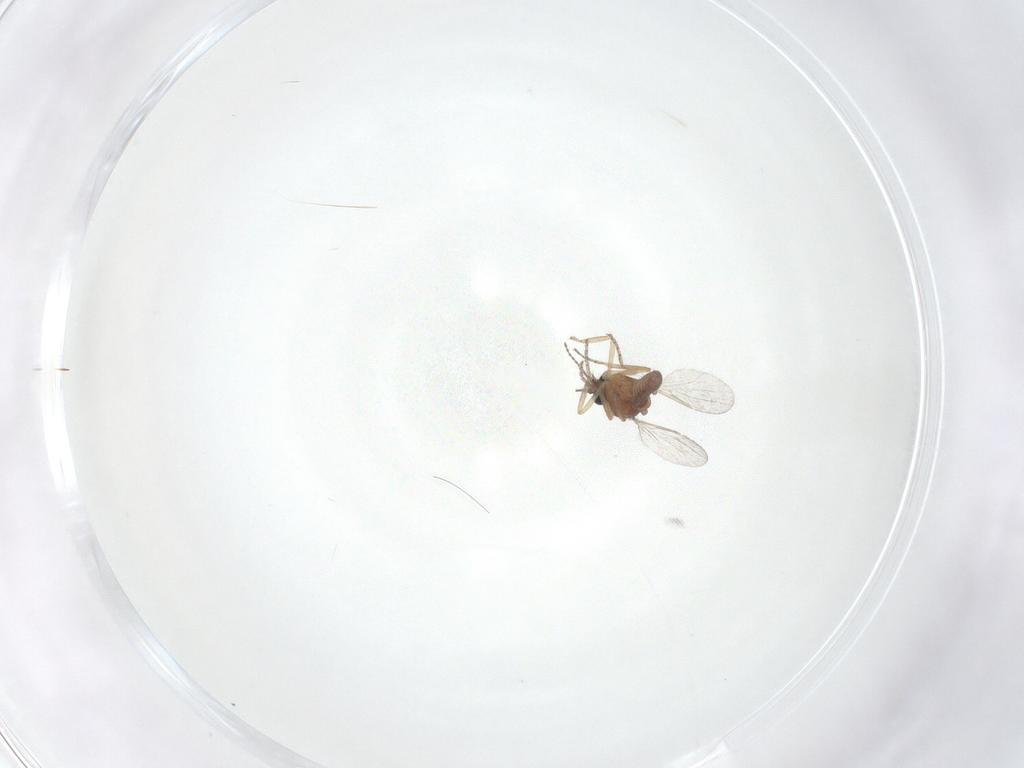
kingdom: Animalia
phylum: Arthropoda
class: Insecta
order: Diptera
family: Ceratopogonidae
